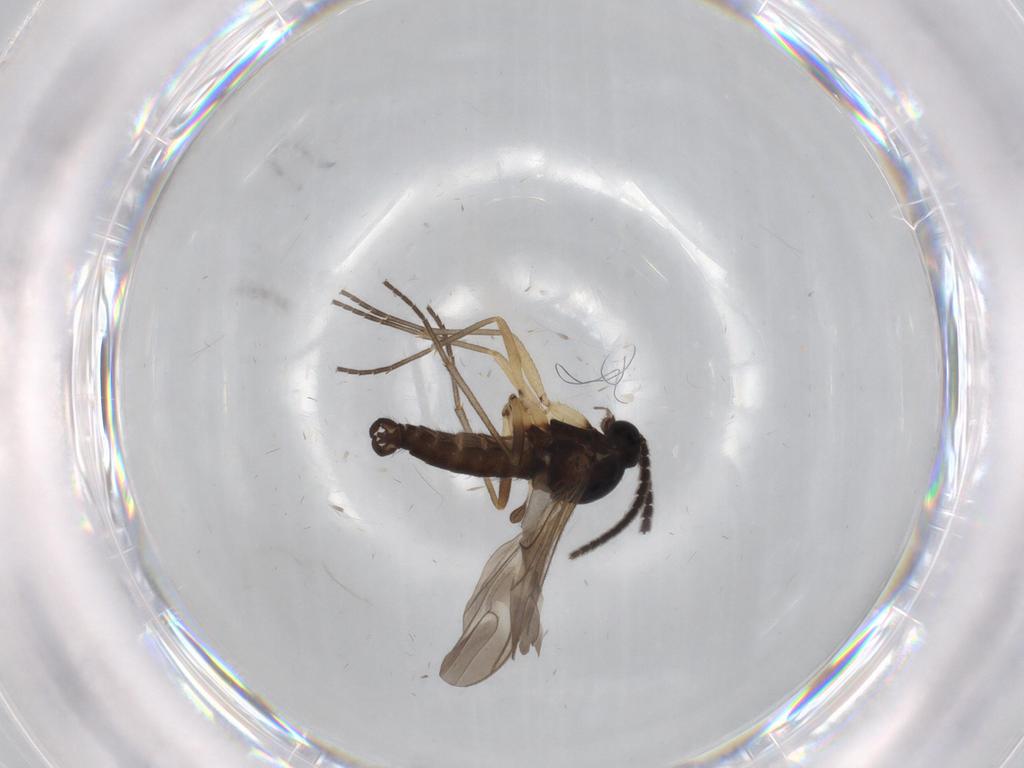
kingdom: Animalia
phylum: Arthropoda
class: Insecta
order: Diptera
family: Sciaridae
